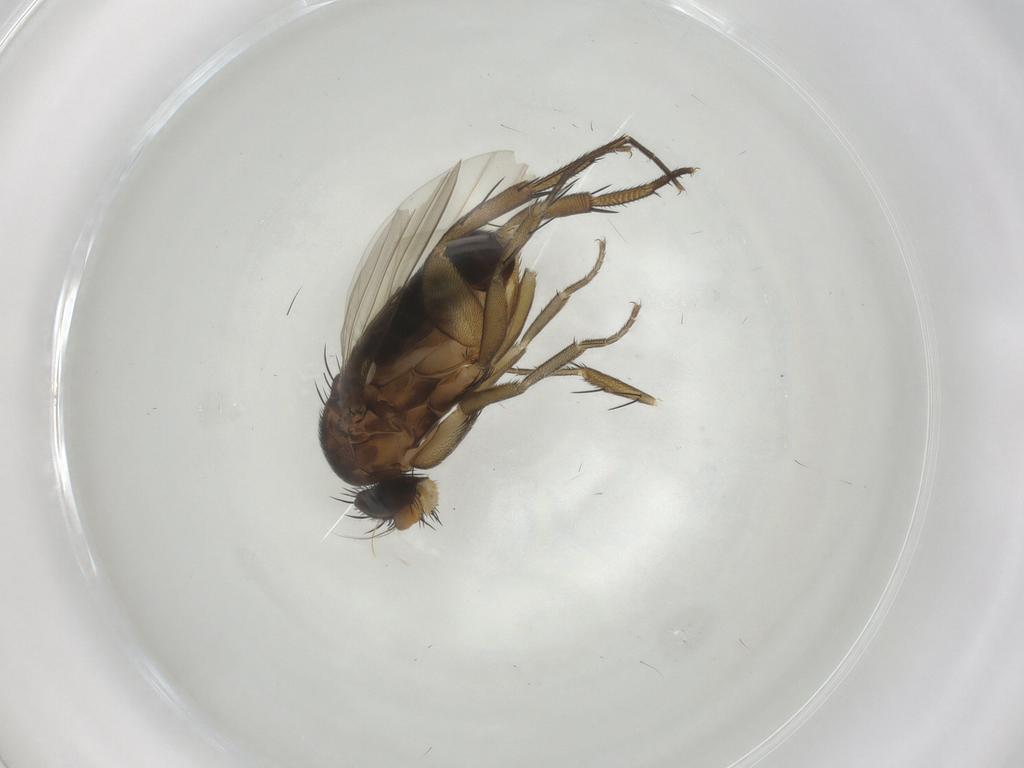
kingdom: Animalia
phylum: Arthropoda
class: Insecta
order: Diptera
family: Phoridae
